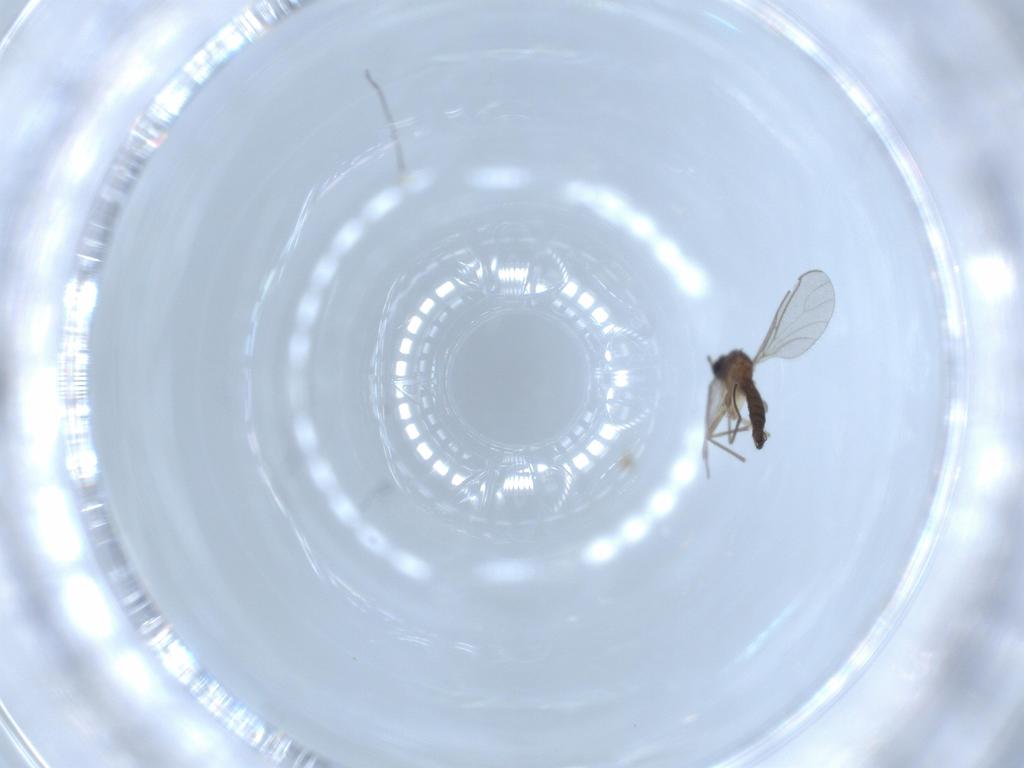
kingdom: Animalia
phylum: Arthropoda
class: Insecta
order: Diptera
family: Sciaridae
